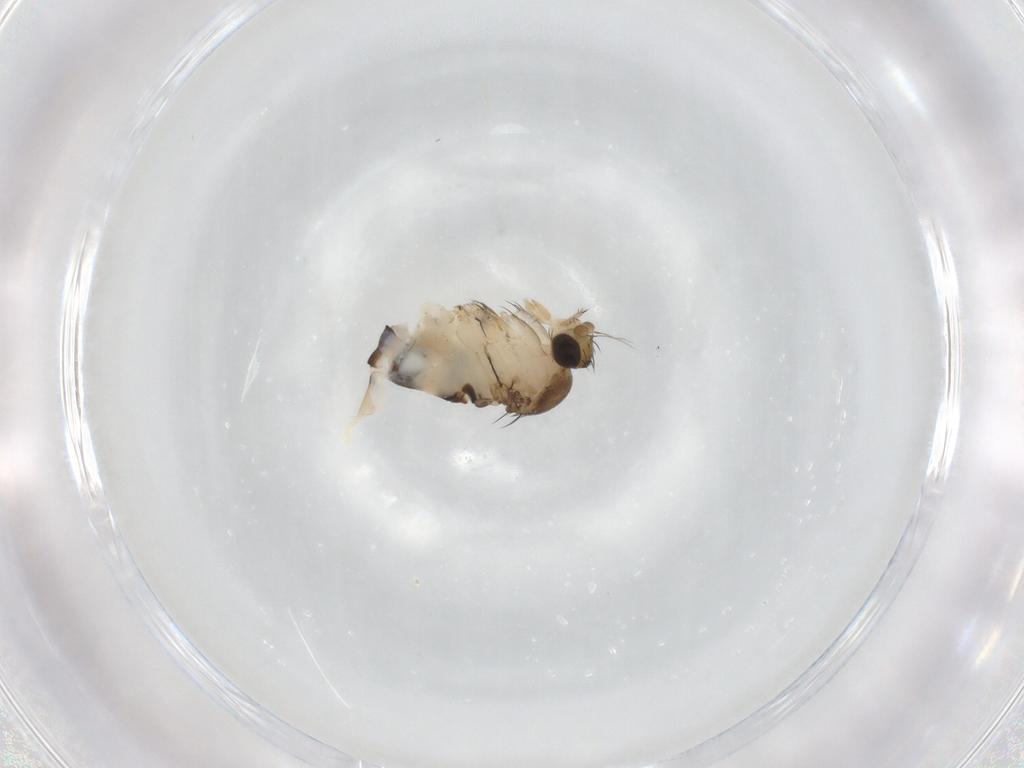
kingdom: Animalia
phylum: Arthropoda
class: Insecta
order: Diptera
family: Phoridae
